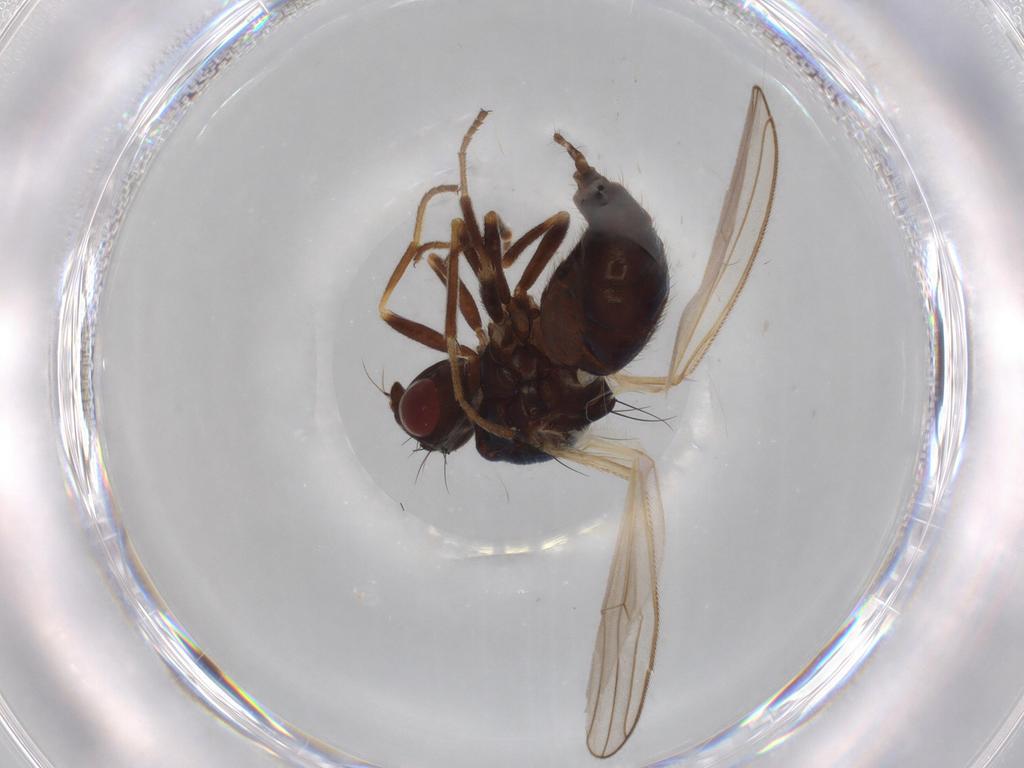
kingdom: Animalia
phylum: Arthropoda
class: Insecta
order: Diptera
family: Muscidae
